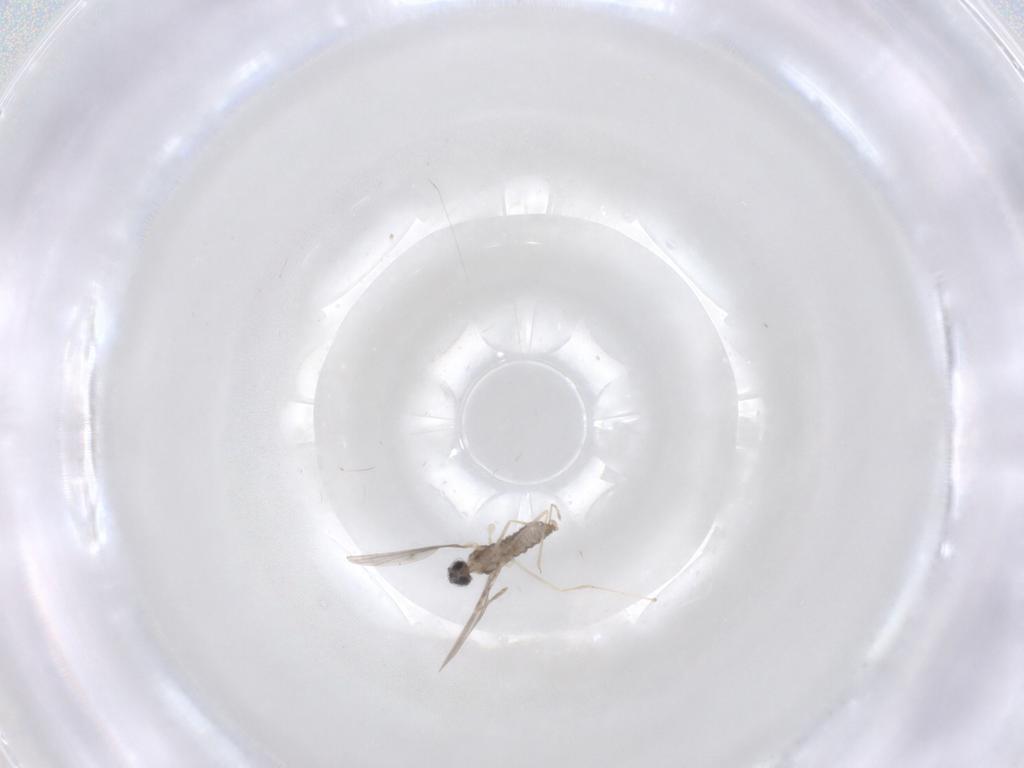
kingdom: Animalia
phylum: Arthropoda
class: Insecta
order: Diptera
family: Cecidomyiidae
